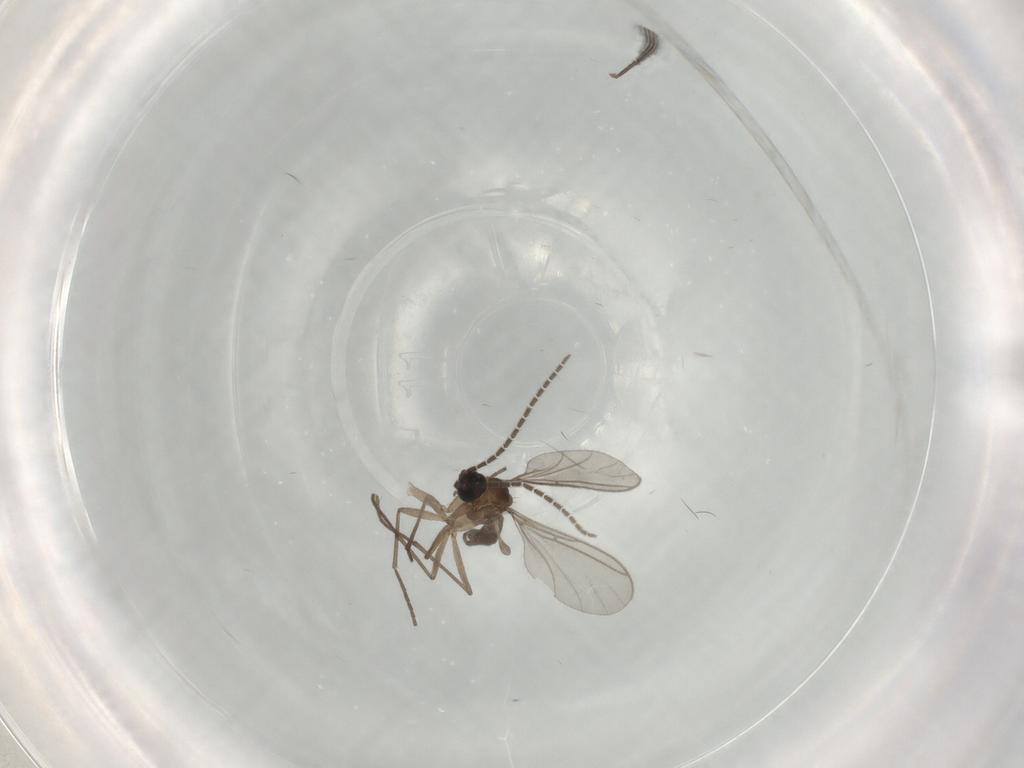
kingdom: Animalia
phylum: Arthropoda
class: Insecta
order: Diptera
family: Sciaridae
